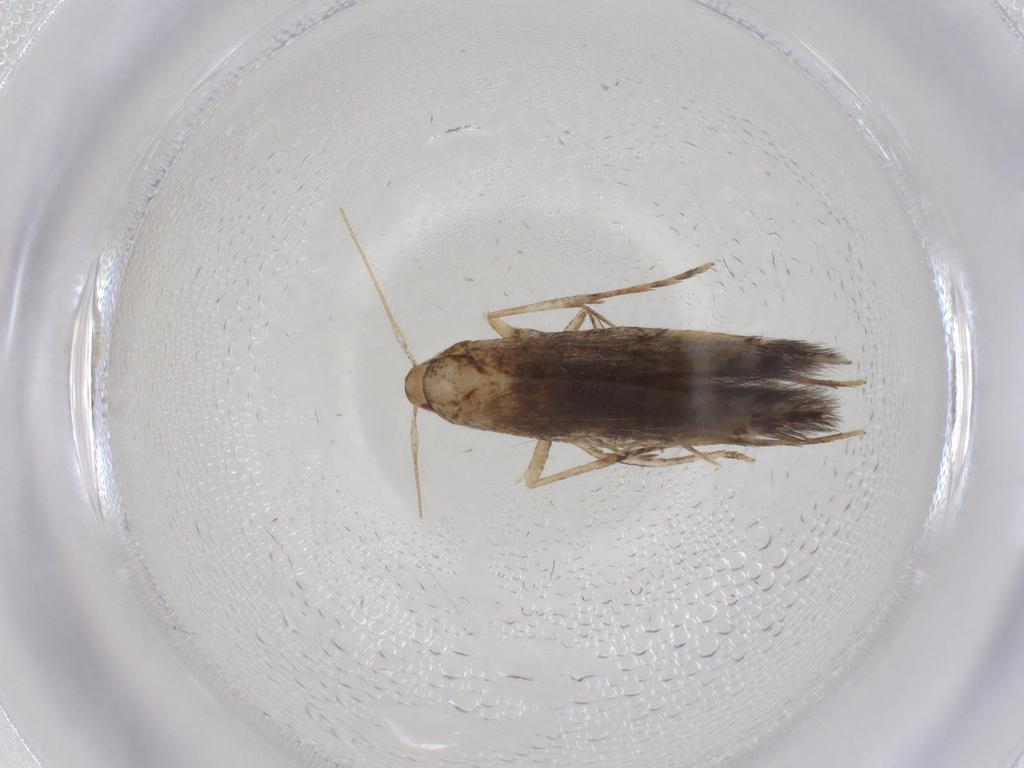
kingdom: Animalia
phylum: Arthropoda
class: Insecta
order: Lepidoptera
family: Cosmopterigidae
